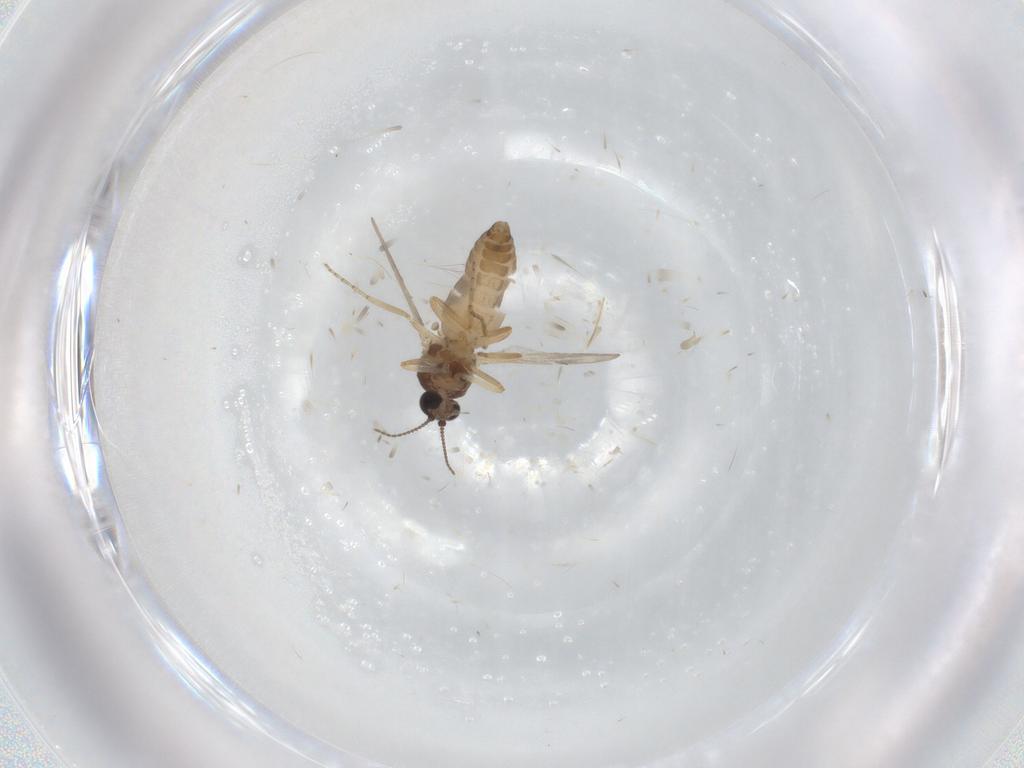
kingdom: Animalia
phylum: Arthropoda
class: Insecta
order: Diptera
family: Ceratopogonidae
